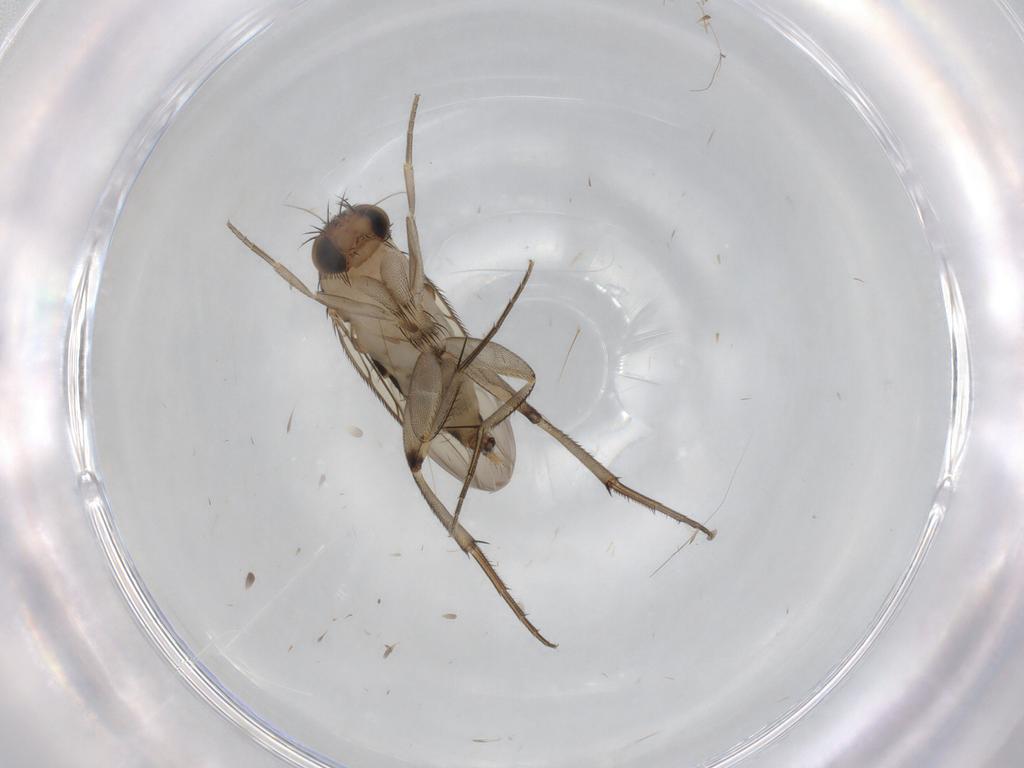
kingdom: Animalia
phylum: Arthropoda
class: Insecta
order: Diptera
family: Phoridae
